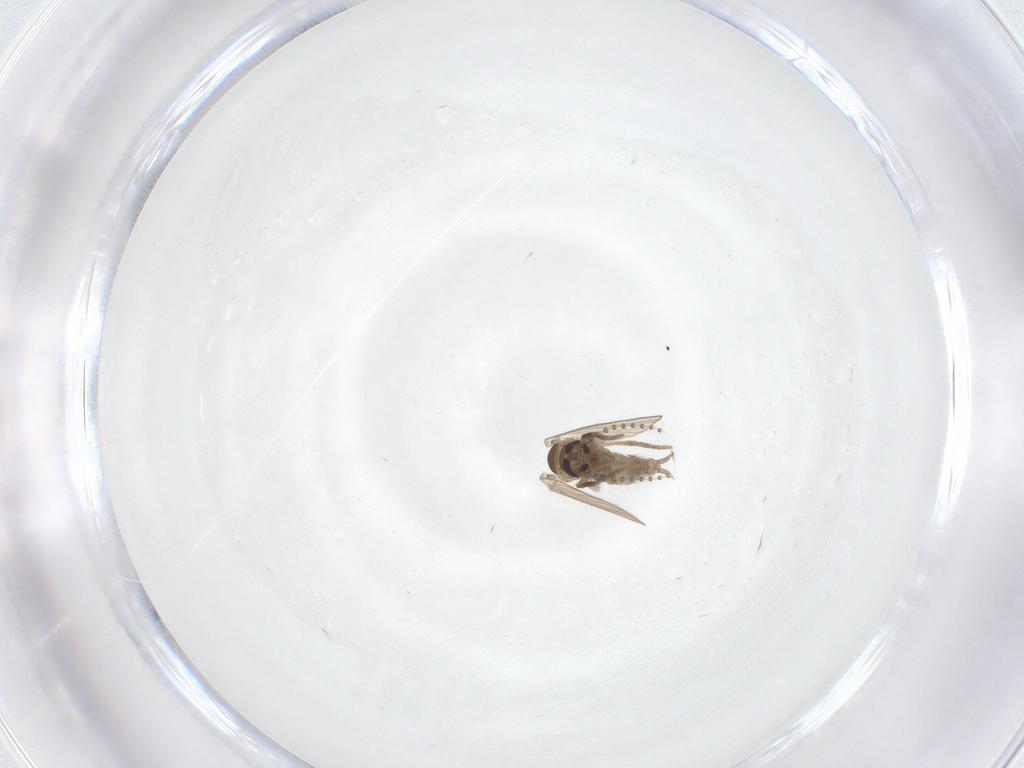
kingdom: Animalia
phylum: Arthropoda
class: Insecta
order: Diptera
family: Psychodidae
